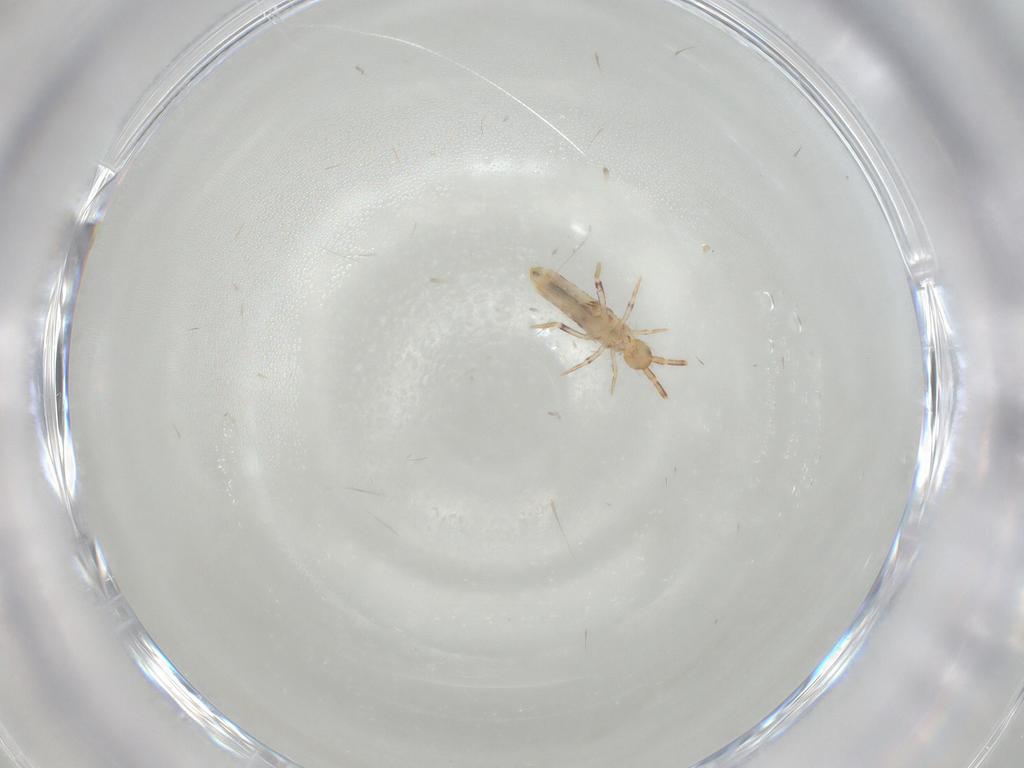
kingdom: Animalia
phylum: Arthropoda
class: Collembola
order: Poduromorpha
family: Hypogastruridae
